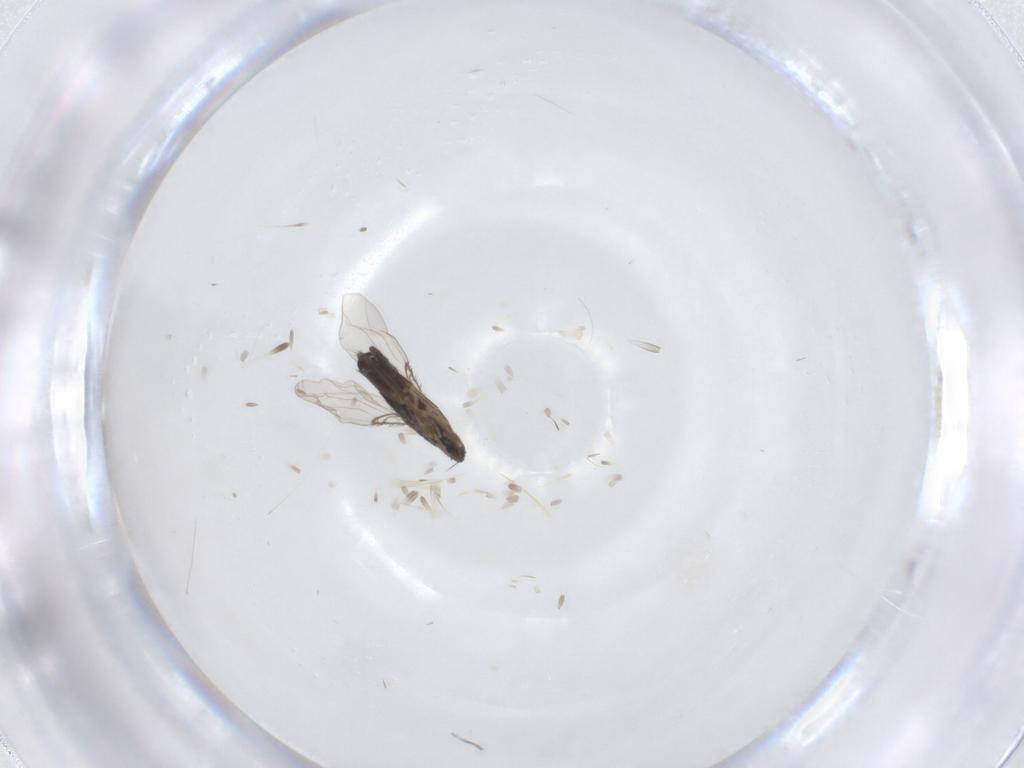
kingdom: Animalia
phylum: Arthropoda
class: Insecta
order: Diptera
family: Phoridae
